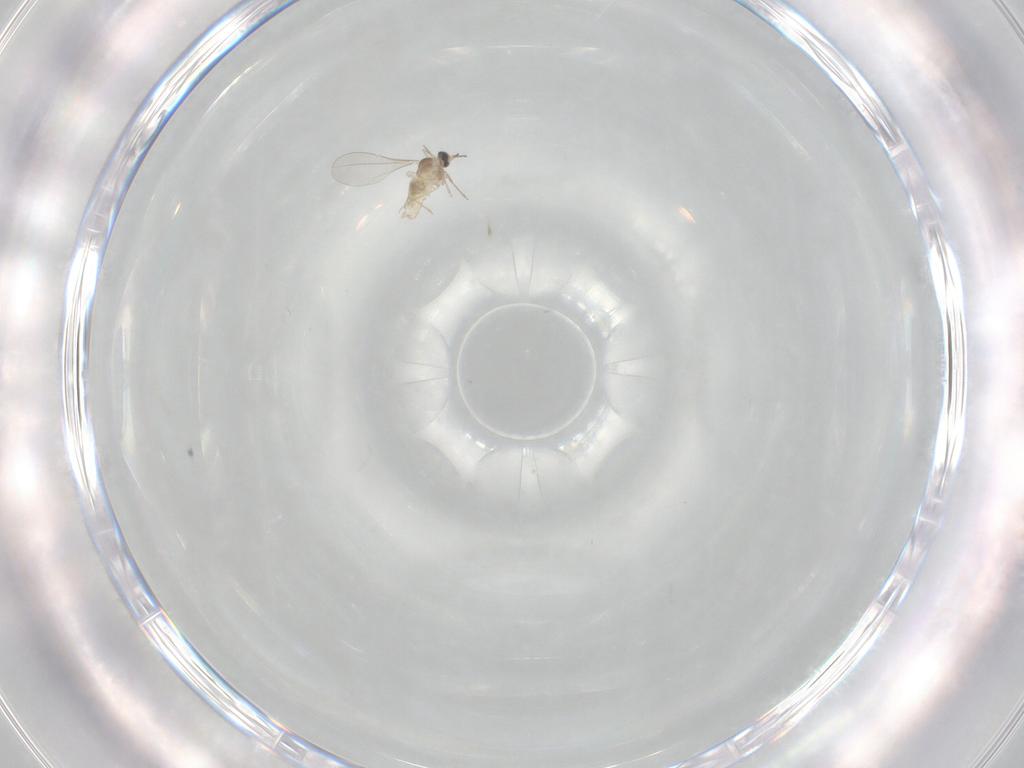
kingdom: Animalia
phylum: Arthropoda
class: Insecta
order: Diptera
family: Cecidomyiidae
